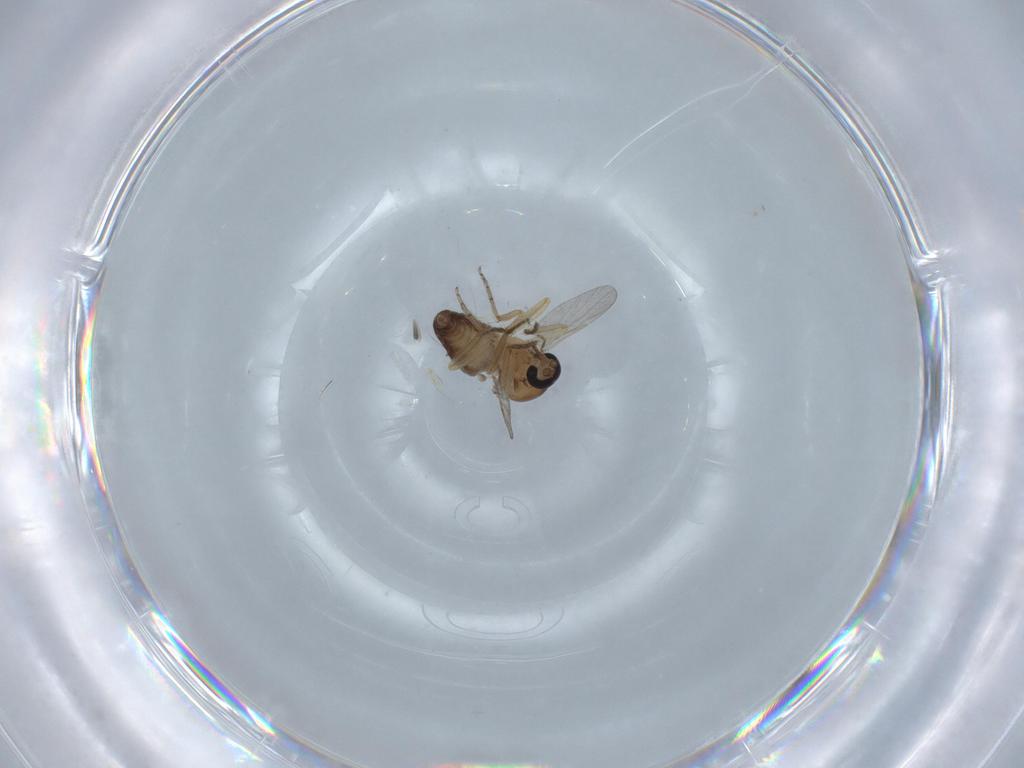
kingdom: Animalia
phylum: Arthropoda
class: Insecta
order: Diptera
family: Ceratopogonidae
